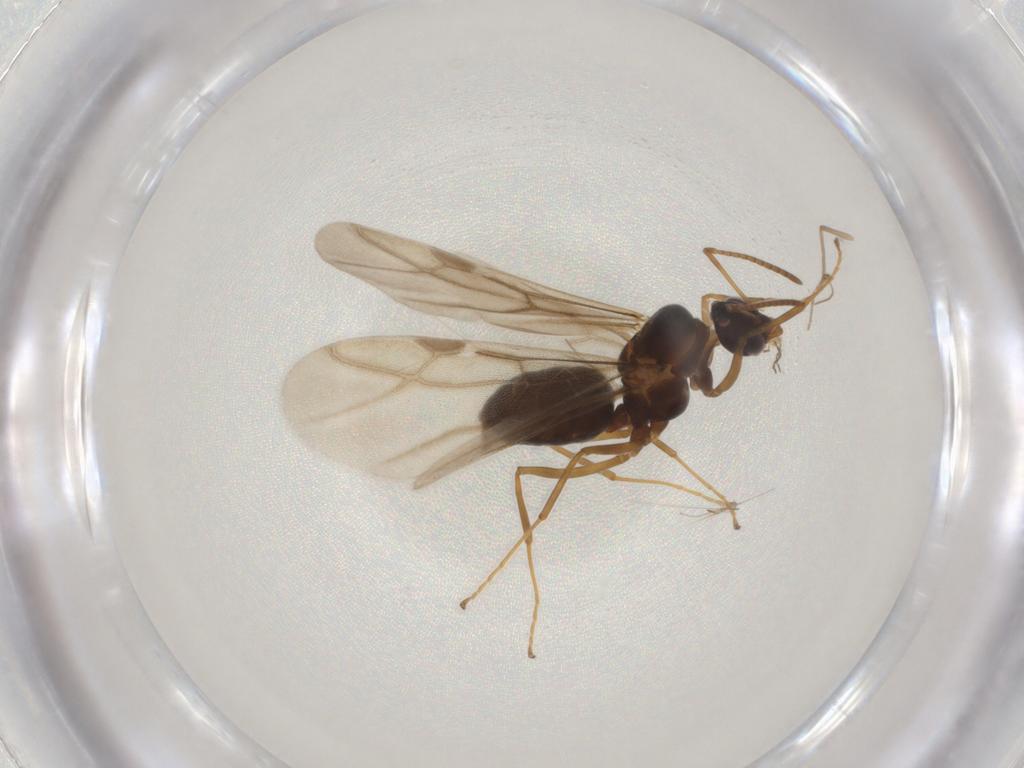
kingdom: Animalia
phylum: Arthropoda
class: Insecta
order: Hymenoptera
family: Formicidae
